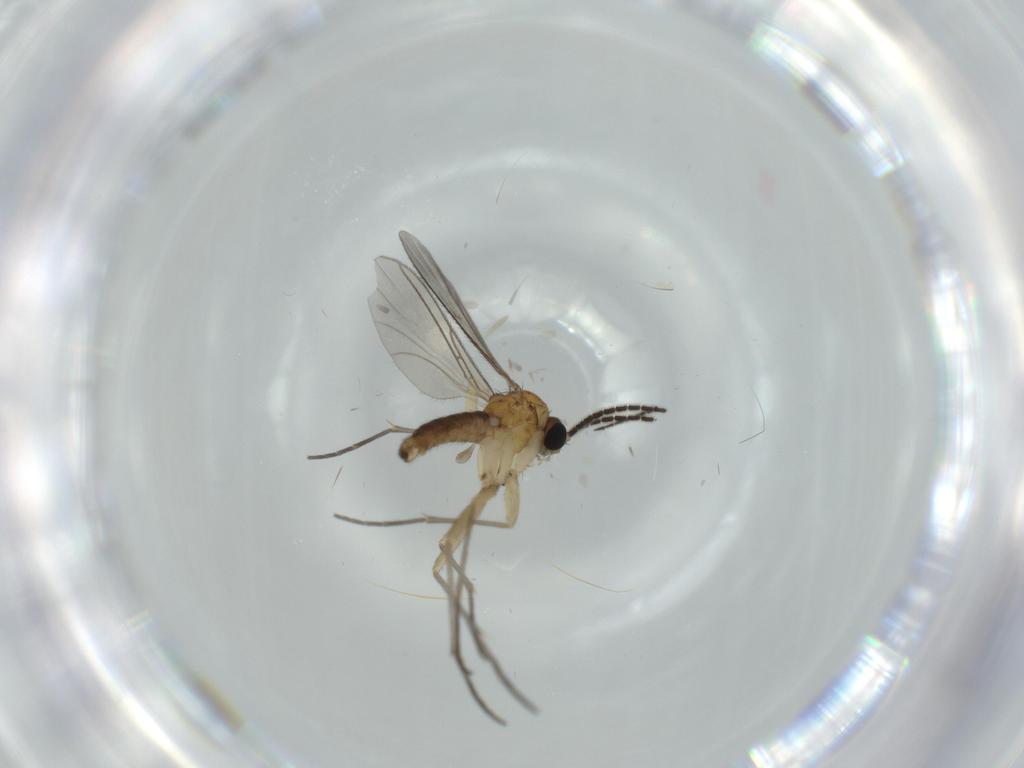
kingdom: Animalia
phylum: Arthropoda
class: Insecta
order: Diptera
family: Sciaridae
